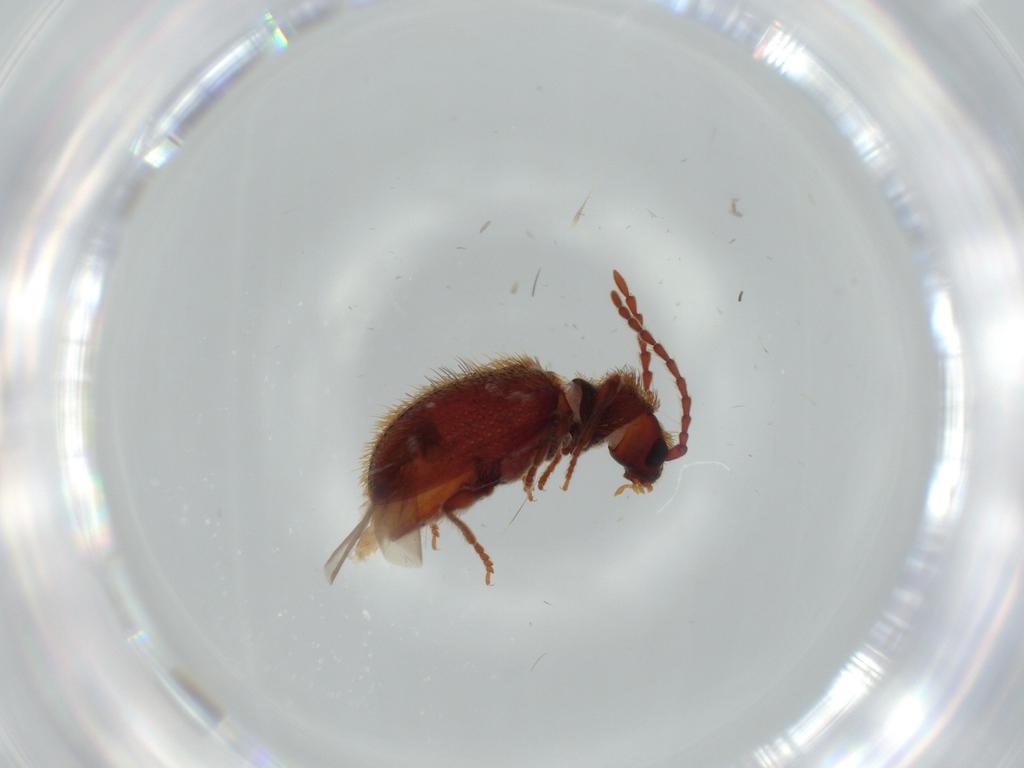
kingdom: Animalia
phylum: Arthropoda
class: Insecta
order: Coleoptera
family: Ptinidae
